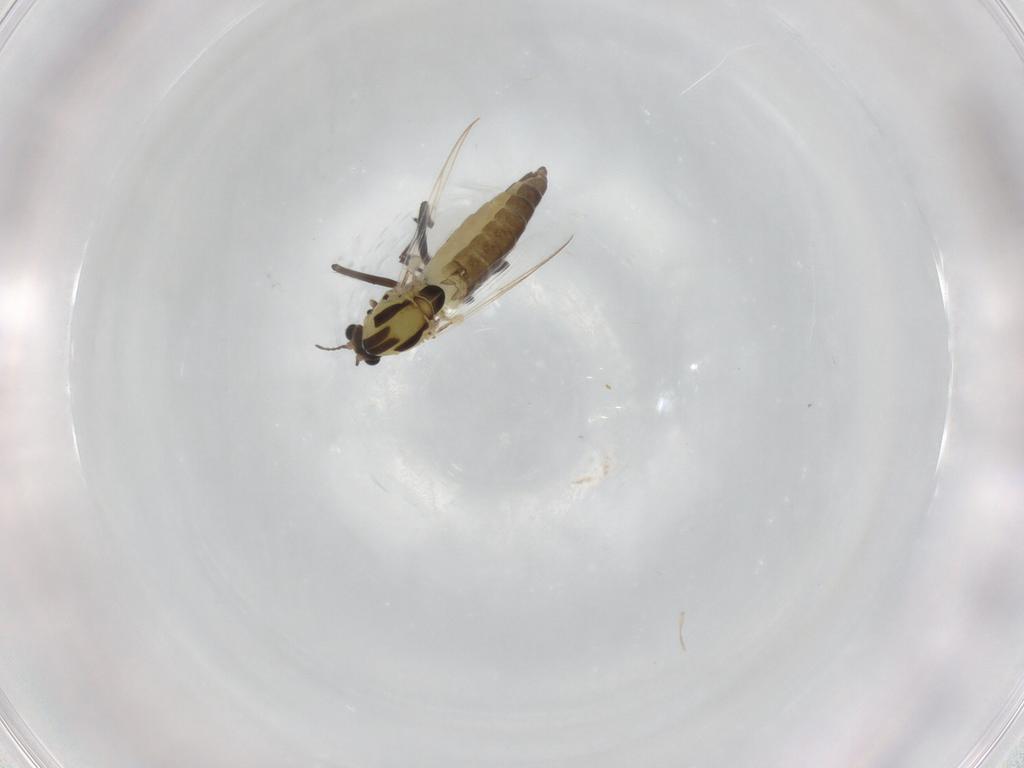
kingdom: Animalia
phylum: Arthropoda
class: Insecta
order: Diptera
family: Chironomidae
